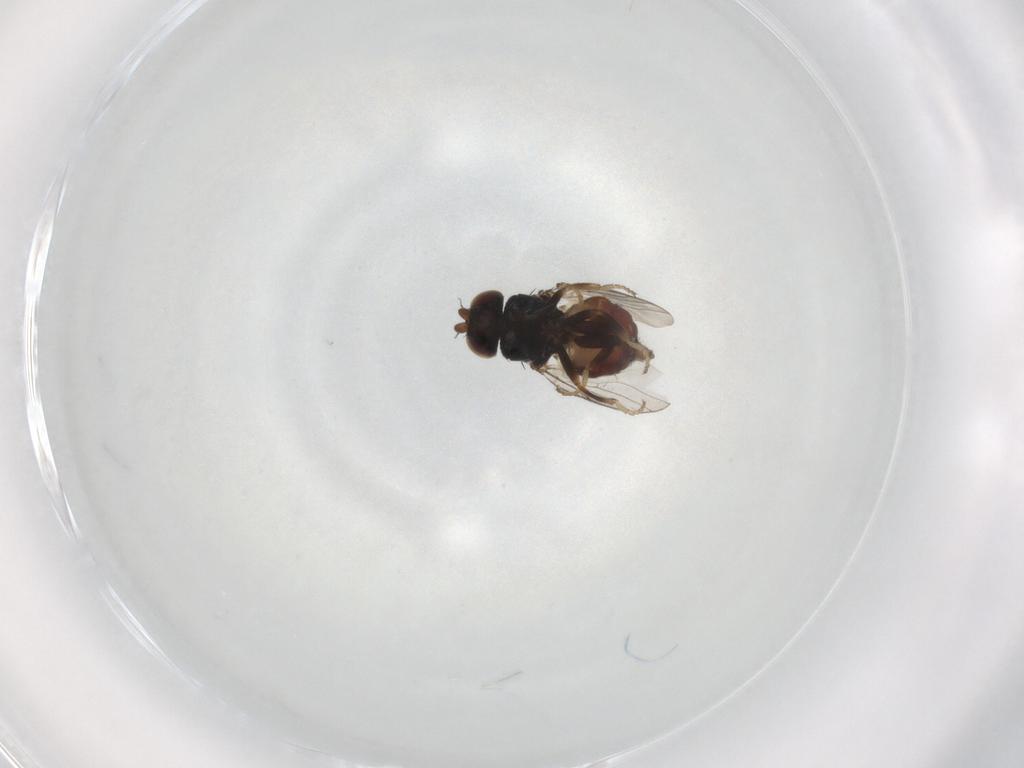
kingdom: Animalia
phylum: Arthropoda
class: Insecta
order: Diptera
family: Chloropidae
